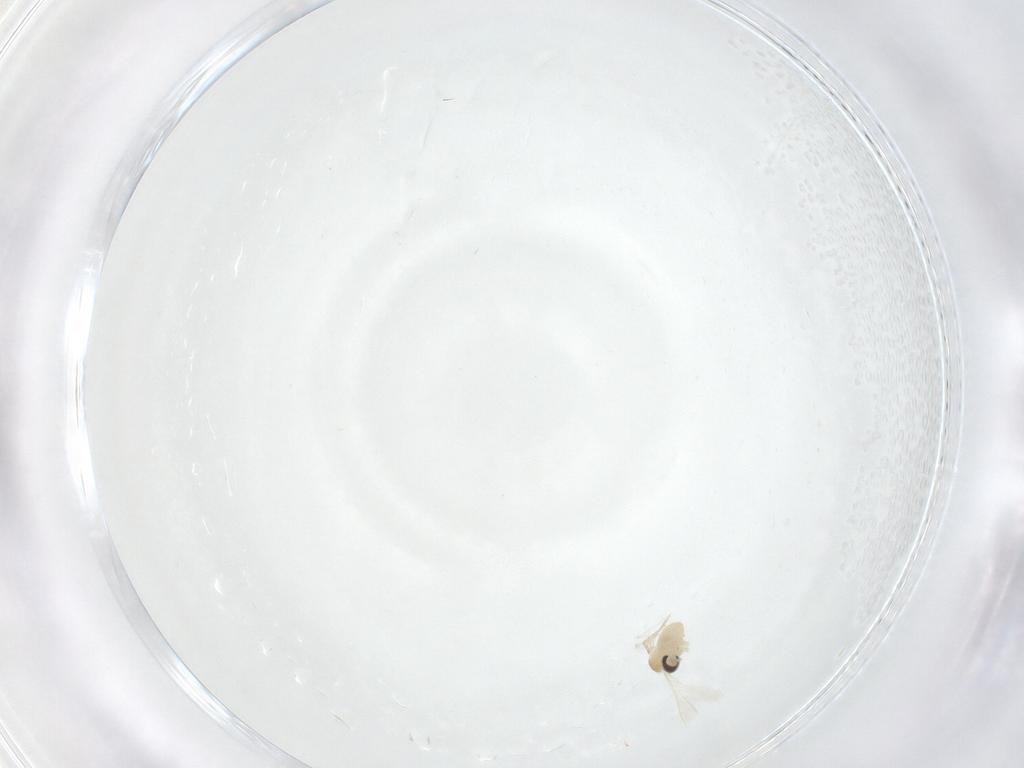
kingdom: Animalia
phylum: Arthropoda
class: Insecta
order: Diptera
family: Cecidomyiidae
